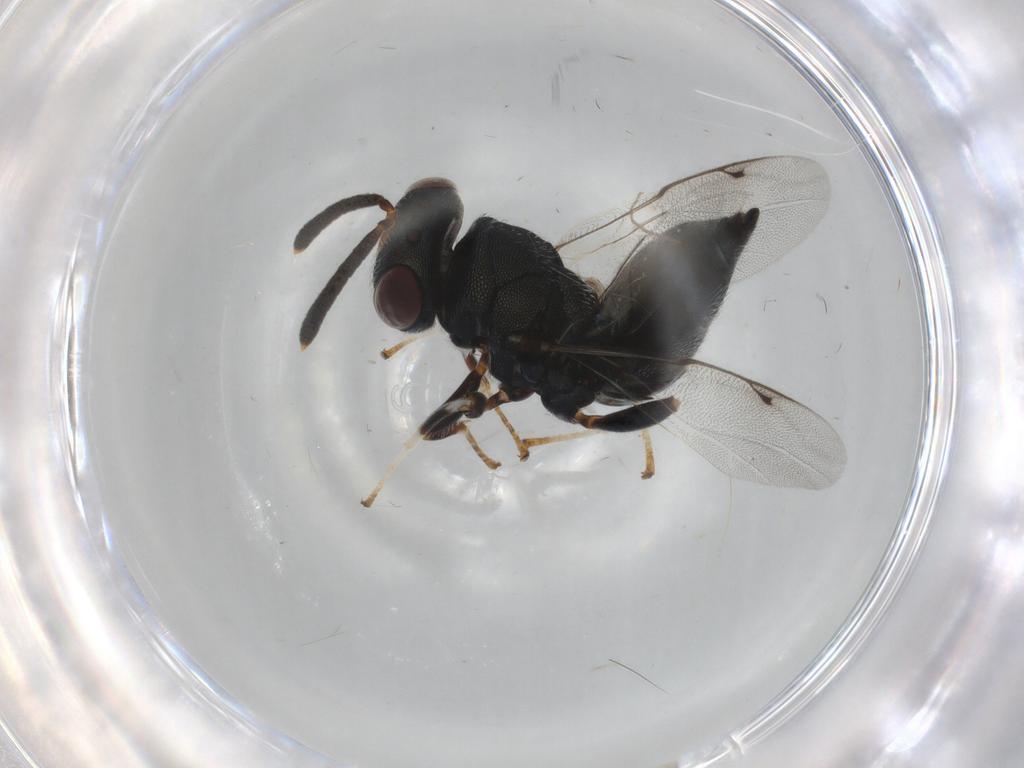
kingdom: Animalia
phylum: Arthropoda
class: Insecta
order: Hymenoptera
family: Pteromalidae
